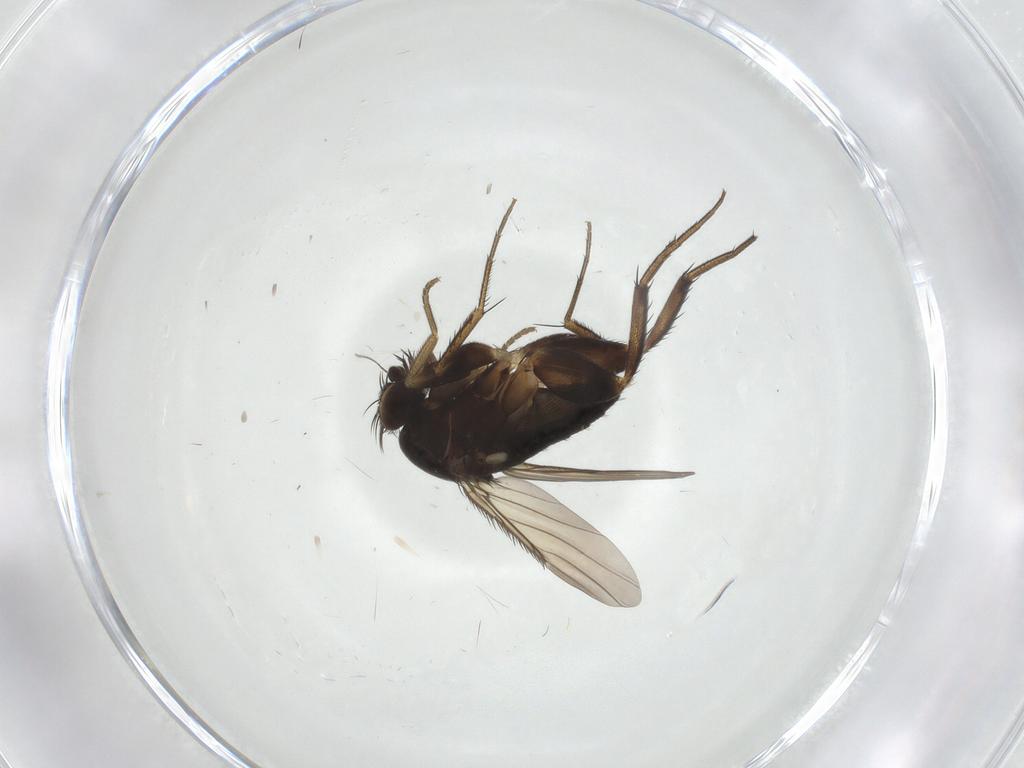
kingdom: Animalia
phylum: Arthropoda
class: Insecta
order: Diptera
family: Phoridae
